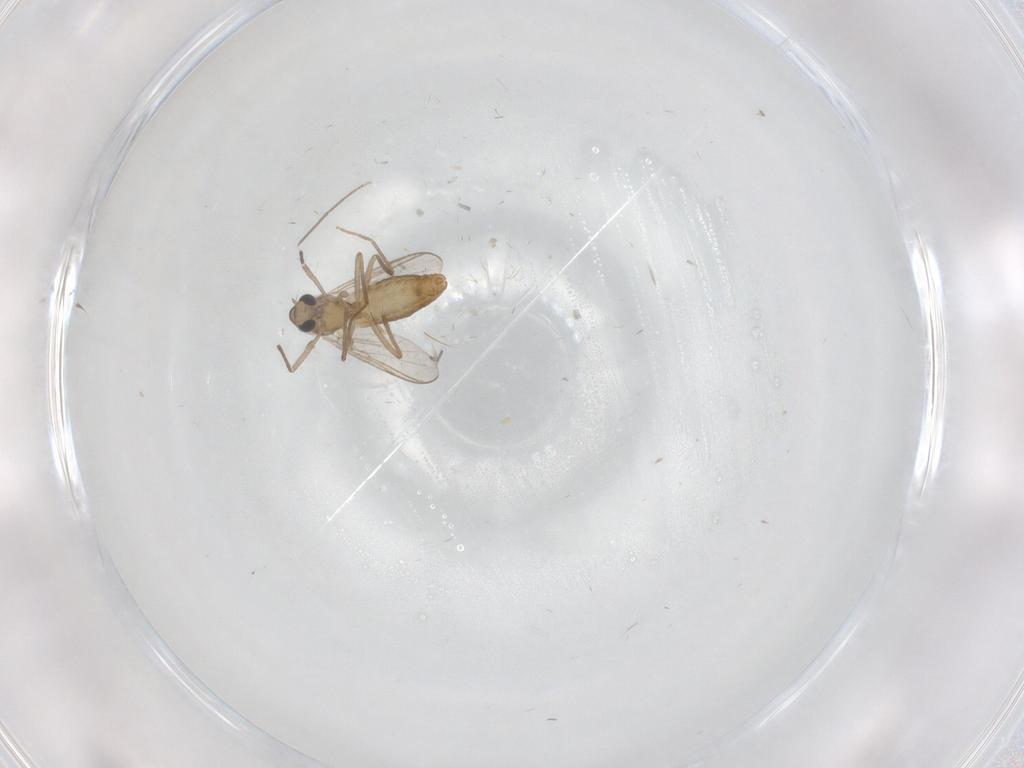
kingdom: Animalia
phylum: Arthropoda
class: Insecta
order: Diptera
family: Chironomidae
